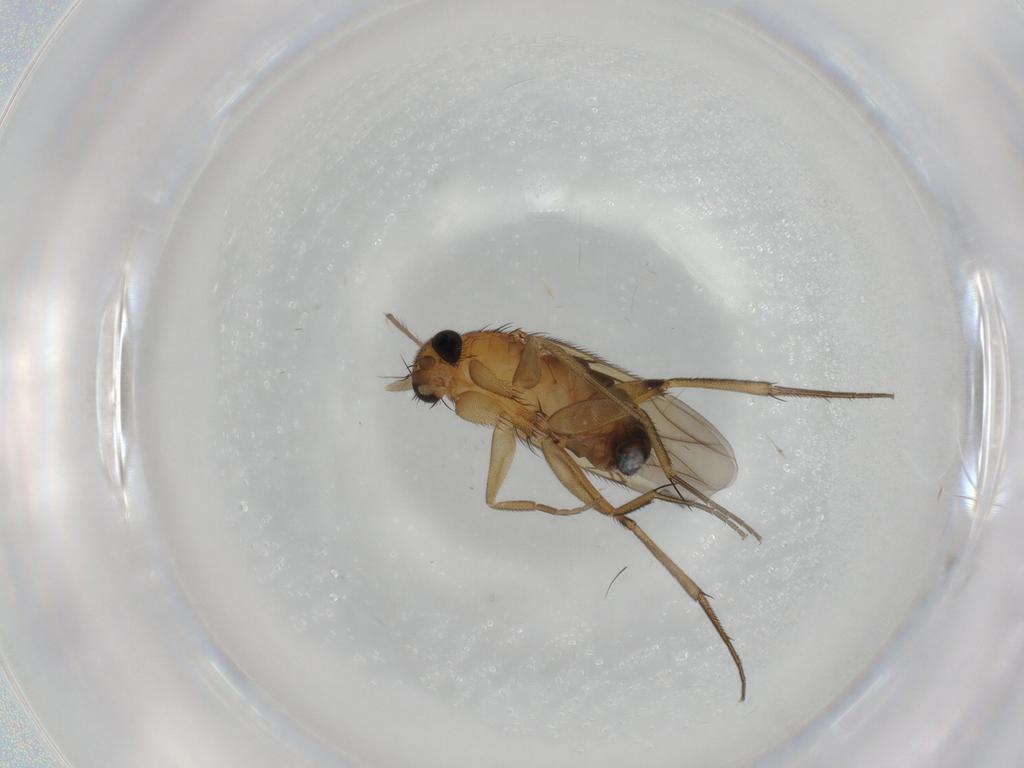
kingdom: Animalia
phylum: Arthropoda
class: Insecta
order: Diptera
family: Phoridae
